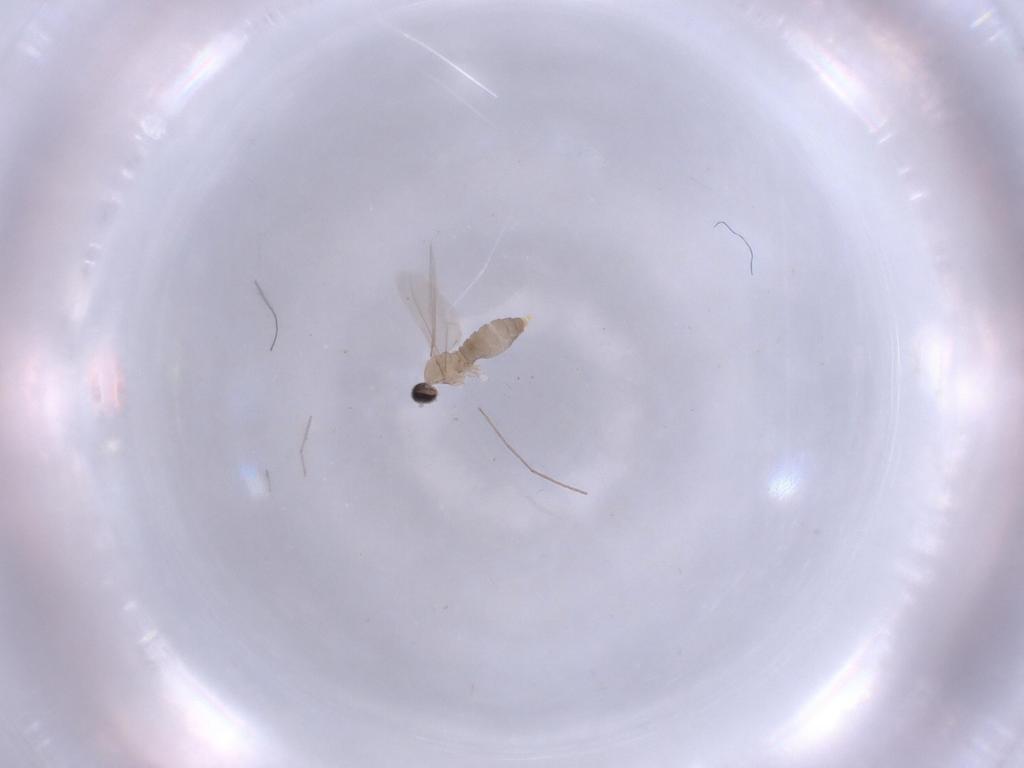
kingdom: Animalia
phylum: Arthropoda
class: Insecta
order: Diptera
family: Cecidomyiidae
